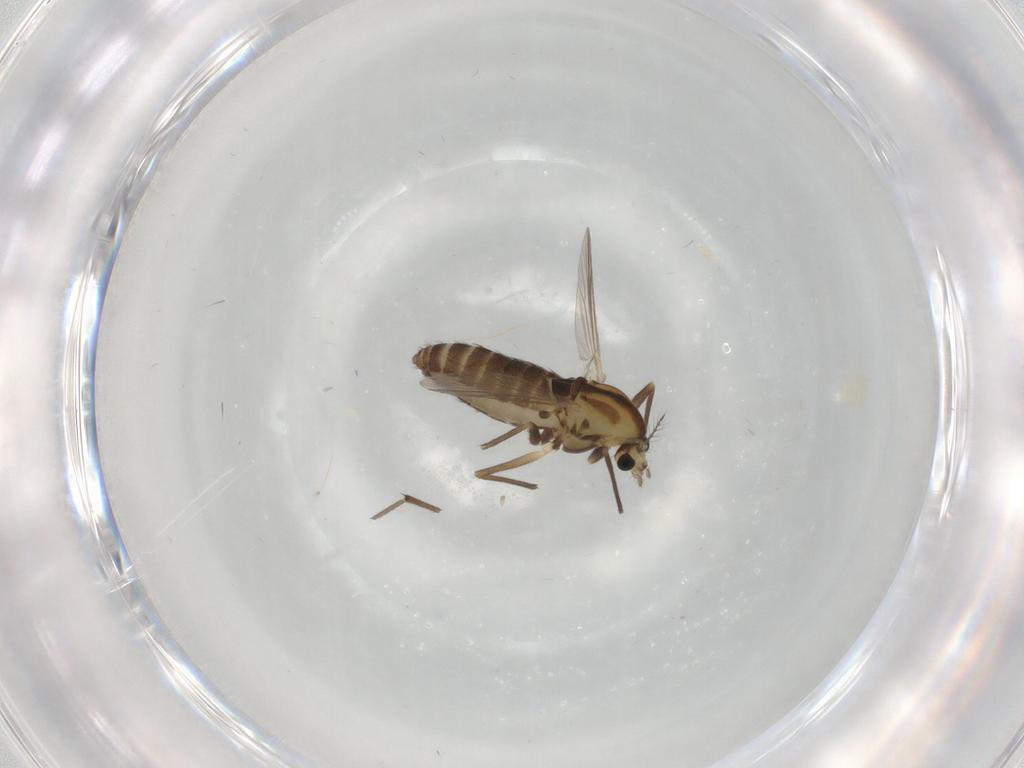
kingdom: Animalia
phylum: Arthropoda
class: Insecta
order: Diptera
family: Chironomidae
